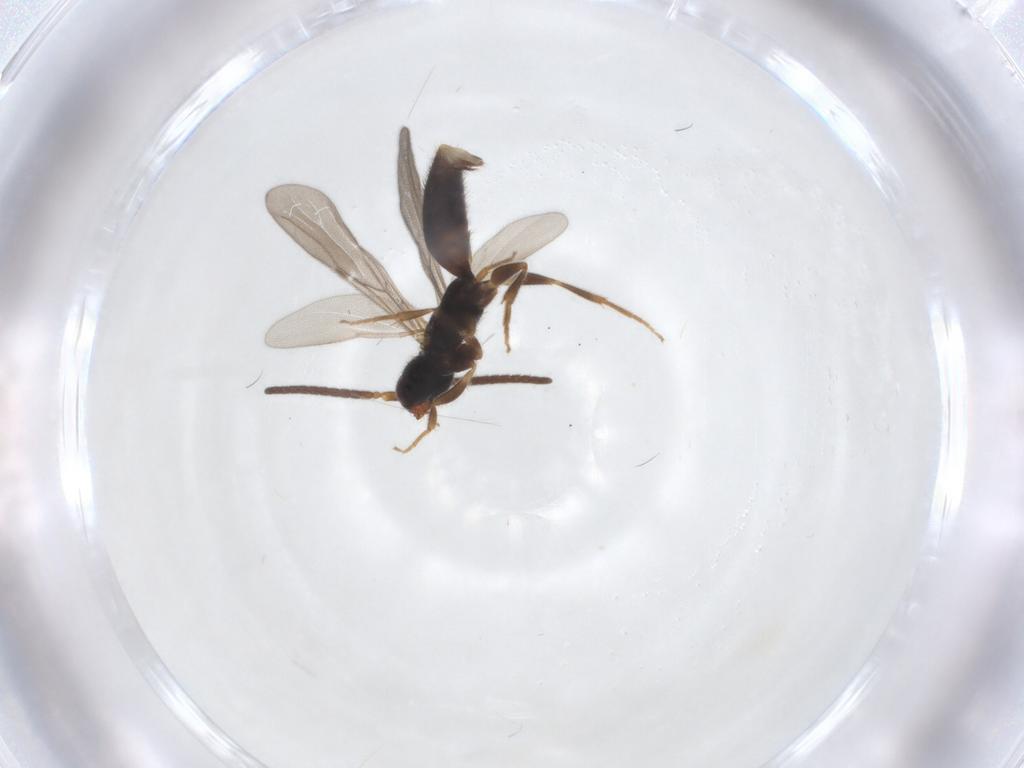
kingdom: Animalia
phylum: Arthropoda
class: Insecta
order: Hymenoptera
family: Bethylidae
